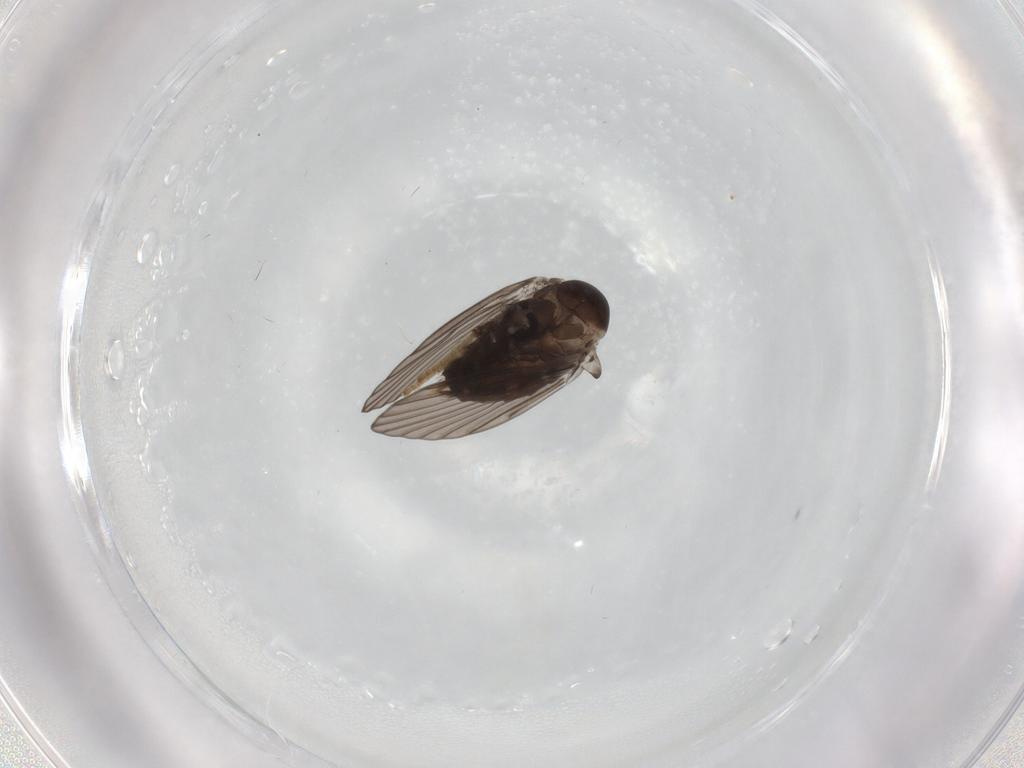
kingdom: Animalia
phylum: Arthropoda
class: Insecta
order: Diptera
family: Psychodidae
